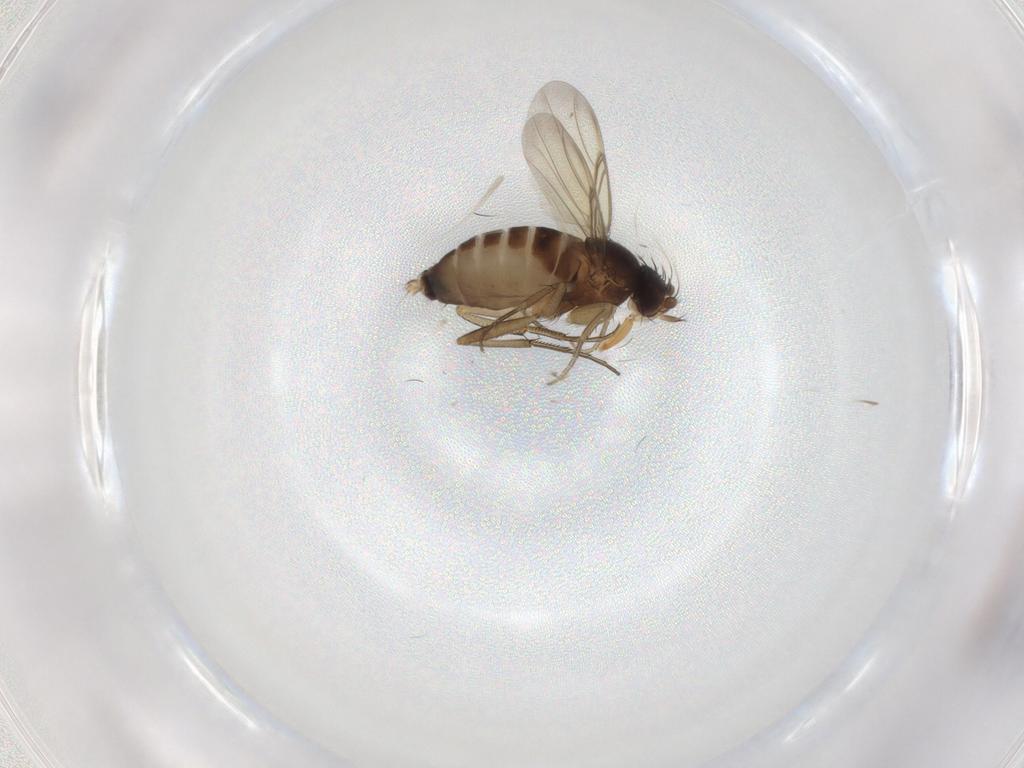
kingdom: Animalia
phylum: Arthropoda
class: Insecta
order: Diptera
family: Phoridae
